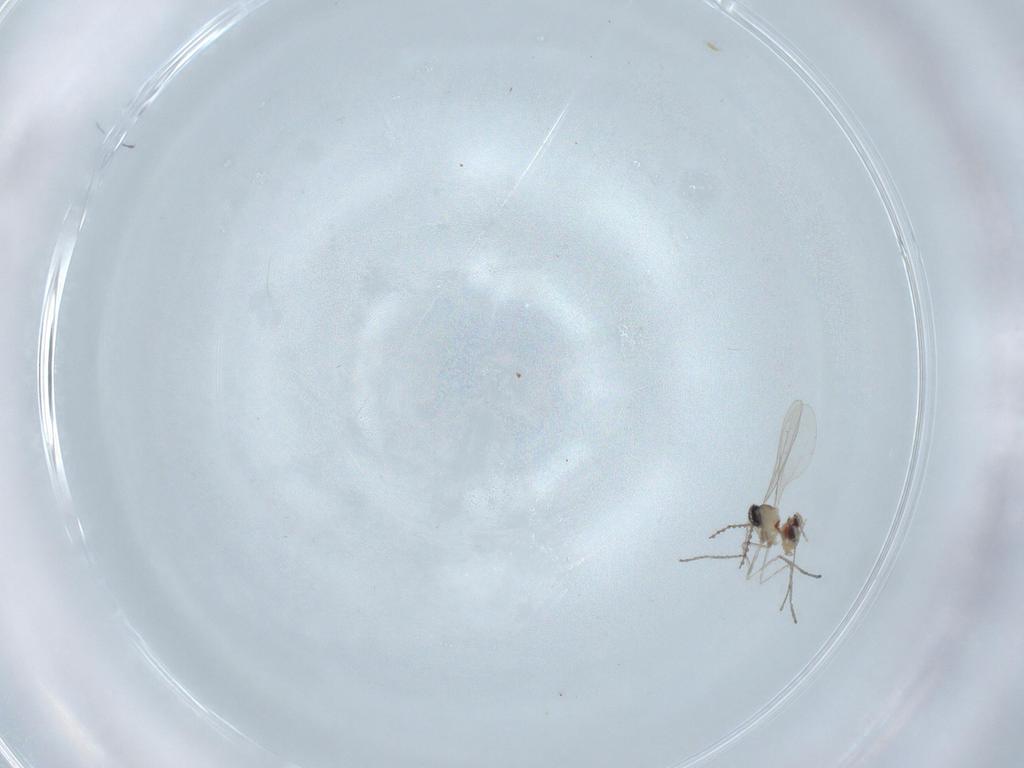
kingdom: Animalia
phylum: Arthropoda
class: Insecta
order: Diptera
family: Cecidomyiidae
